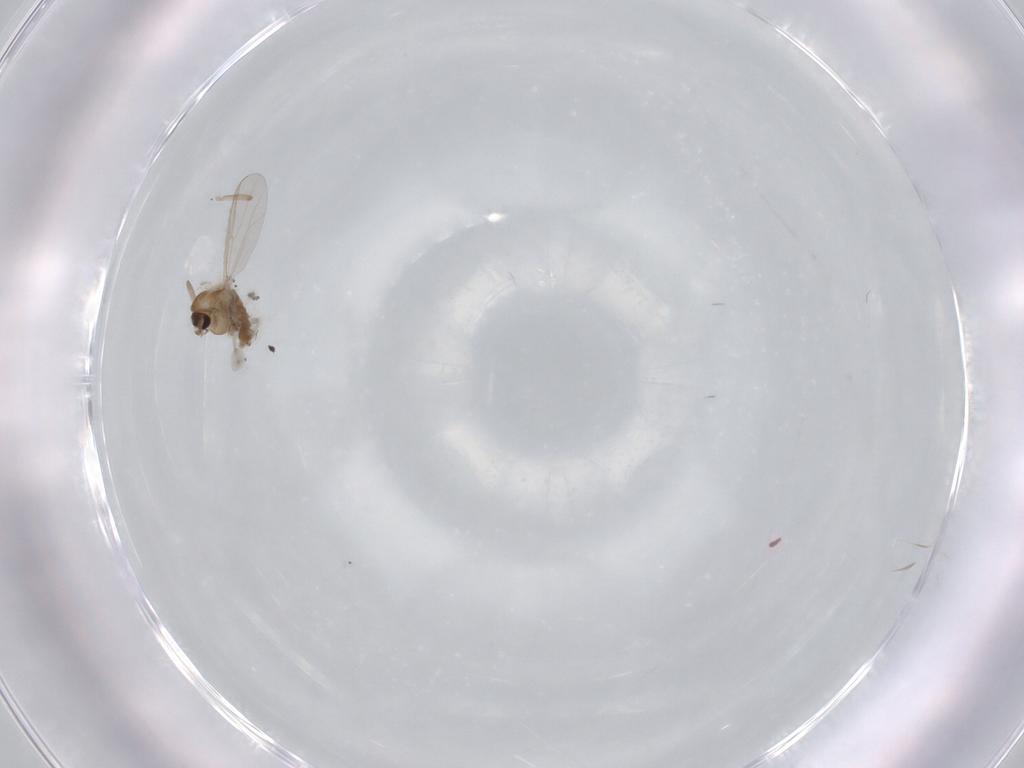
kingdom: Animalia
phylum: Arthropoda
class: Insecta
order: Diptera
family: Chironomidae
